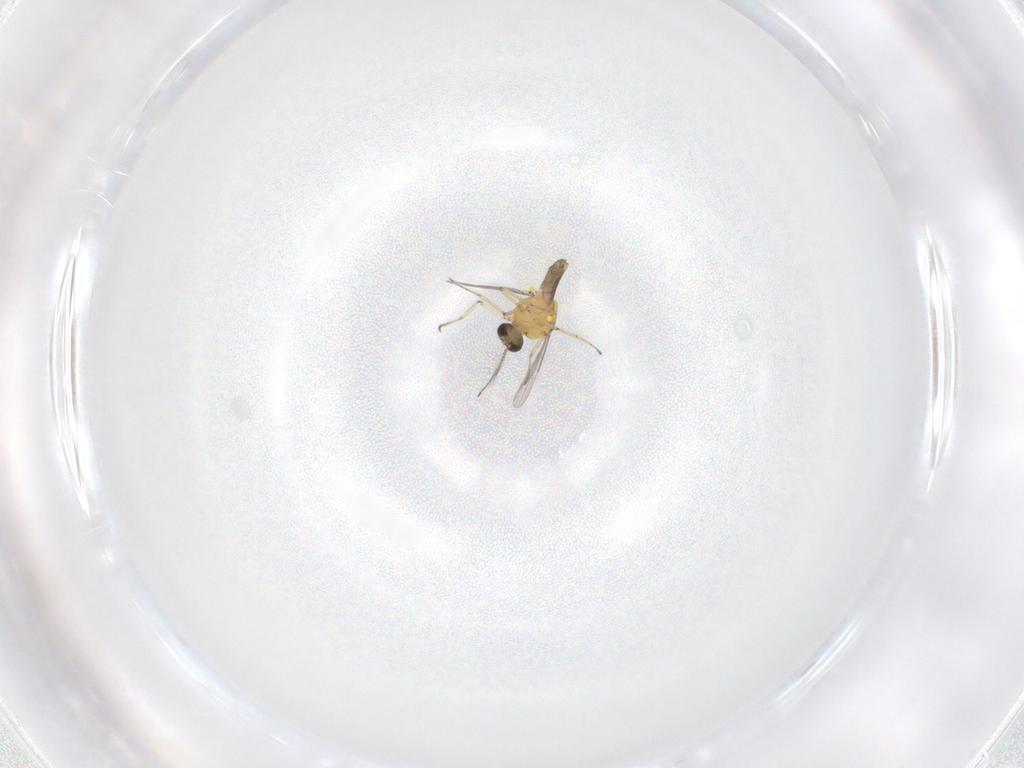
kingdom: Animalia
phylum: Arthropoda
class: Insecta
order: Diptera
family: Ceratopogonidae
